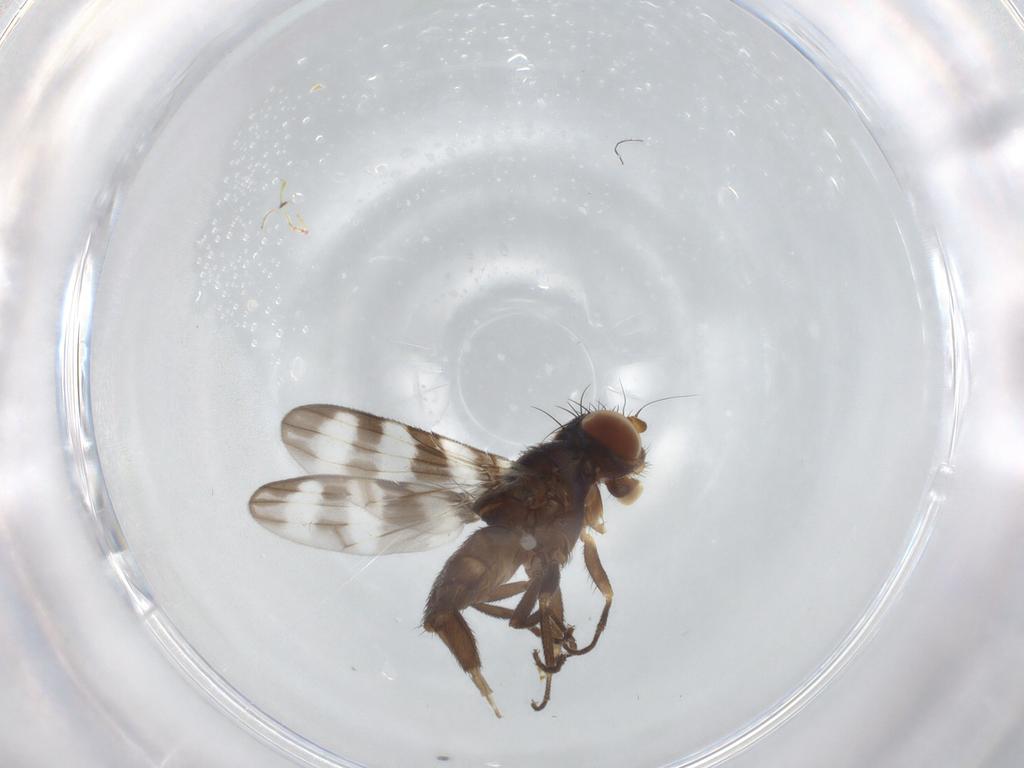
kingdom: Animalia
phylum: Arthropoda
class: Insecta
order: Diptera
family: Ulidiidae
